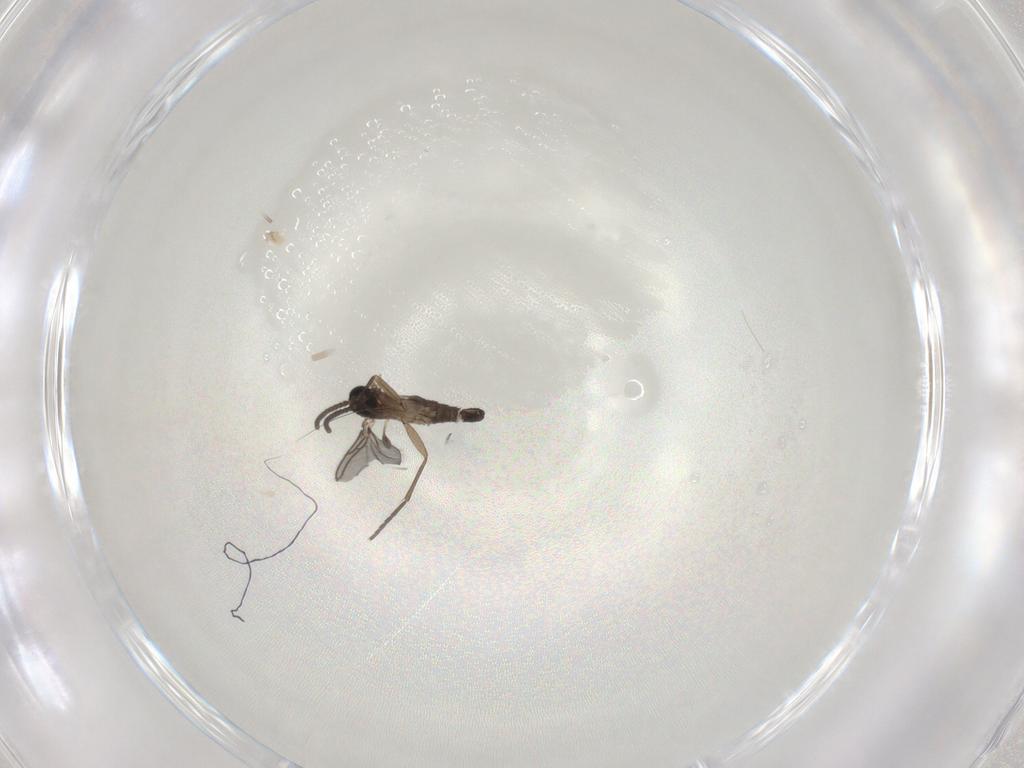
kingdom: Animalia
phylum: Arthropoda
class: Insecta
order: Diptera
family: Sciaridae
